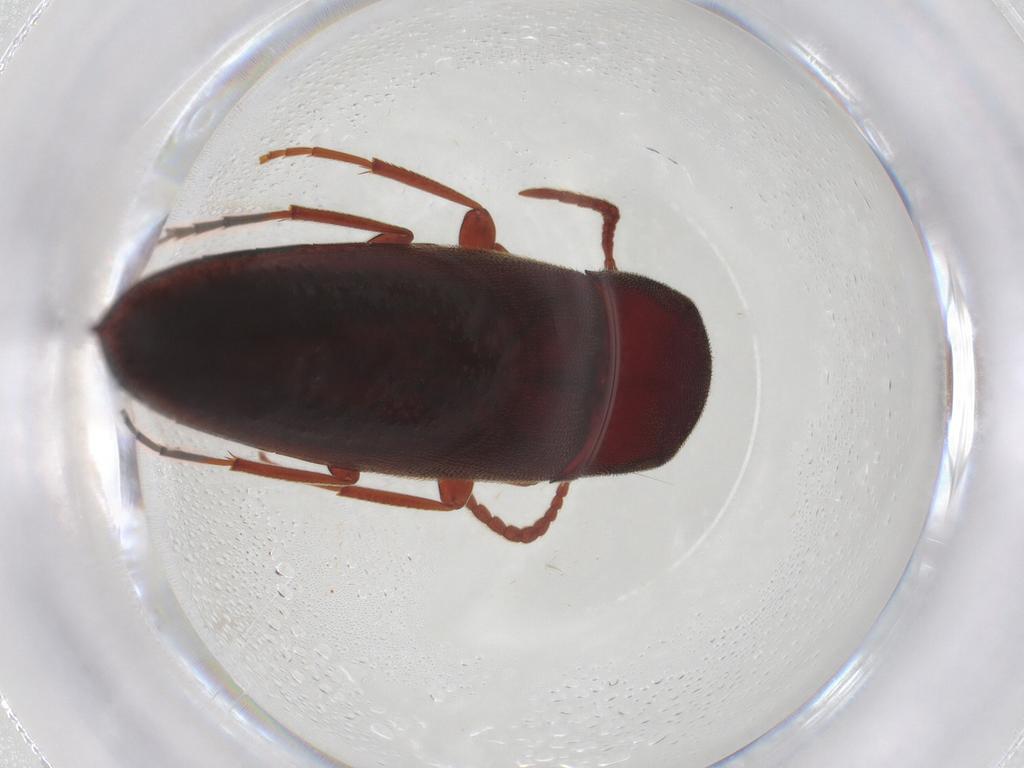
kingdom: Animalia
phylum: Arthropoda
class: Insecta
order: Coleoptera
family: Eucnemidae
